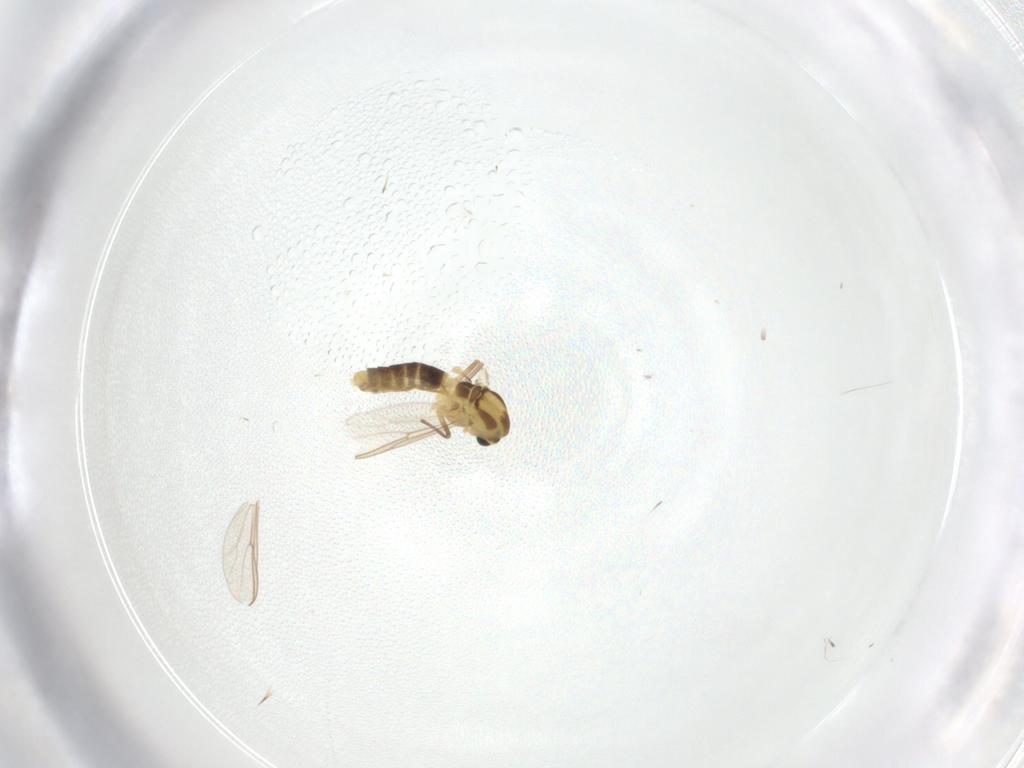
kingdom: Animalia
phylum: Arthropoda
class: Insecta
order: Diptera
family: Chironomidae
